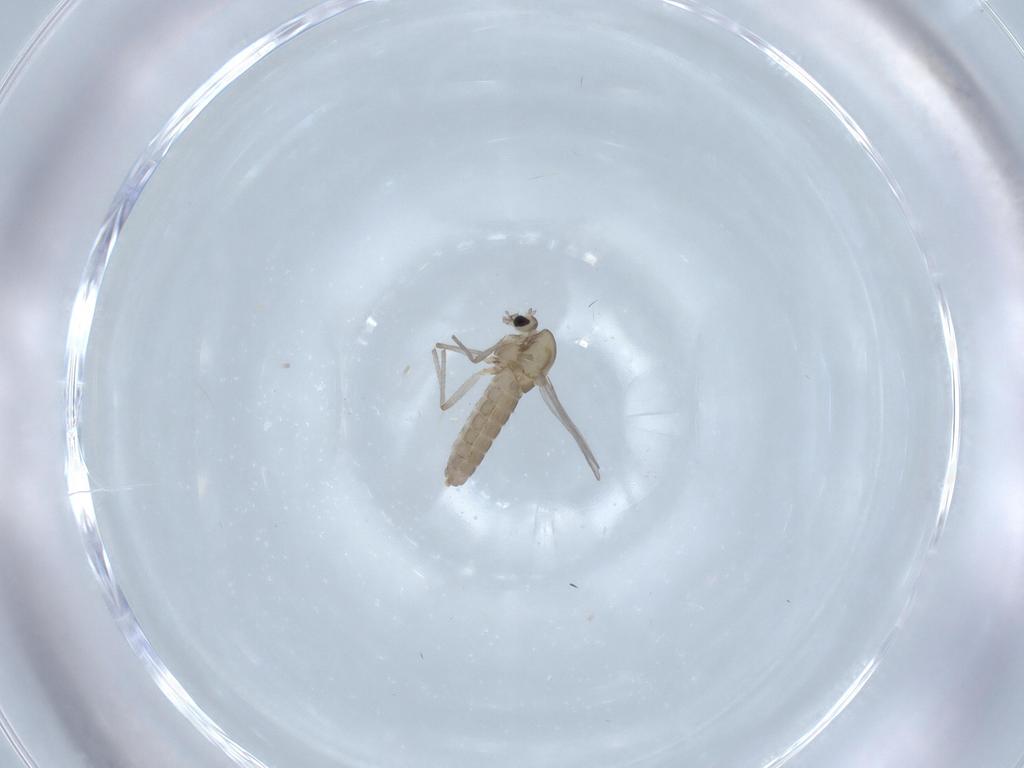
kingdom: Animalia
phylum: Arthropoda
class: Insecta
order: Diptera
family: Chironomidae
